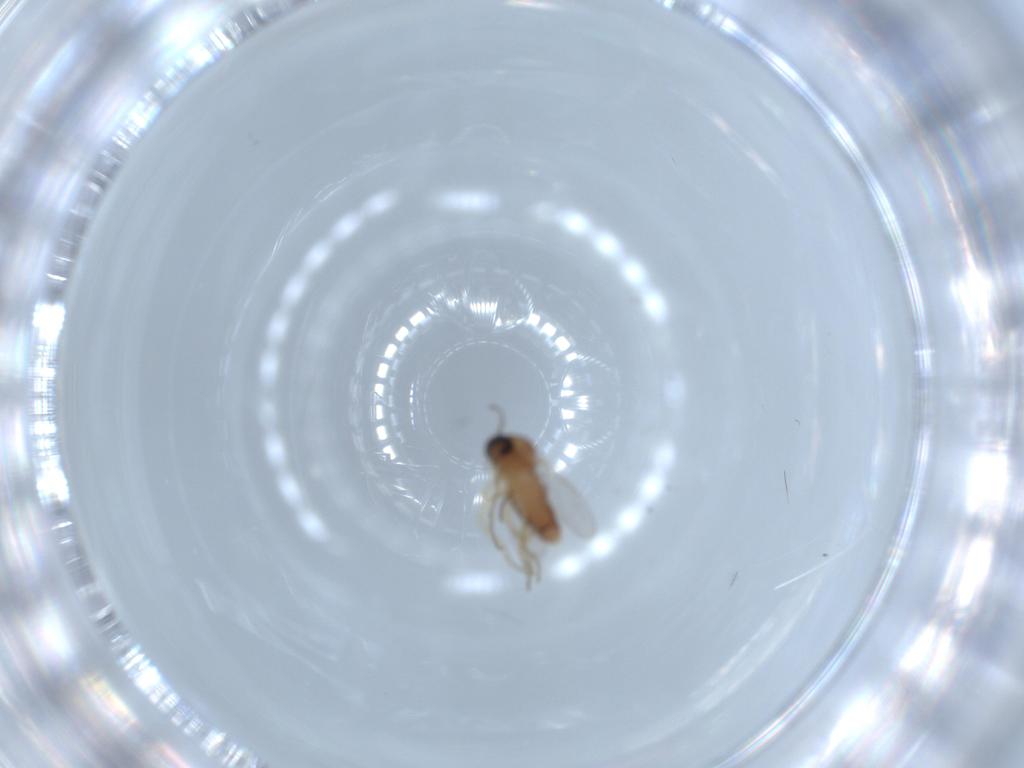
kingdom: Animalia
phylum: Arthropoda
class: Insecta
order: Diptera
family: Ceratopogonidae
